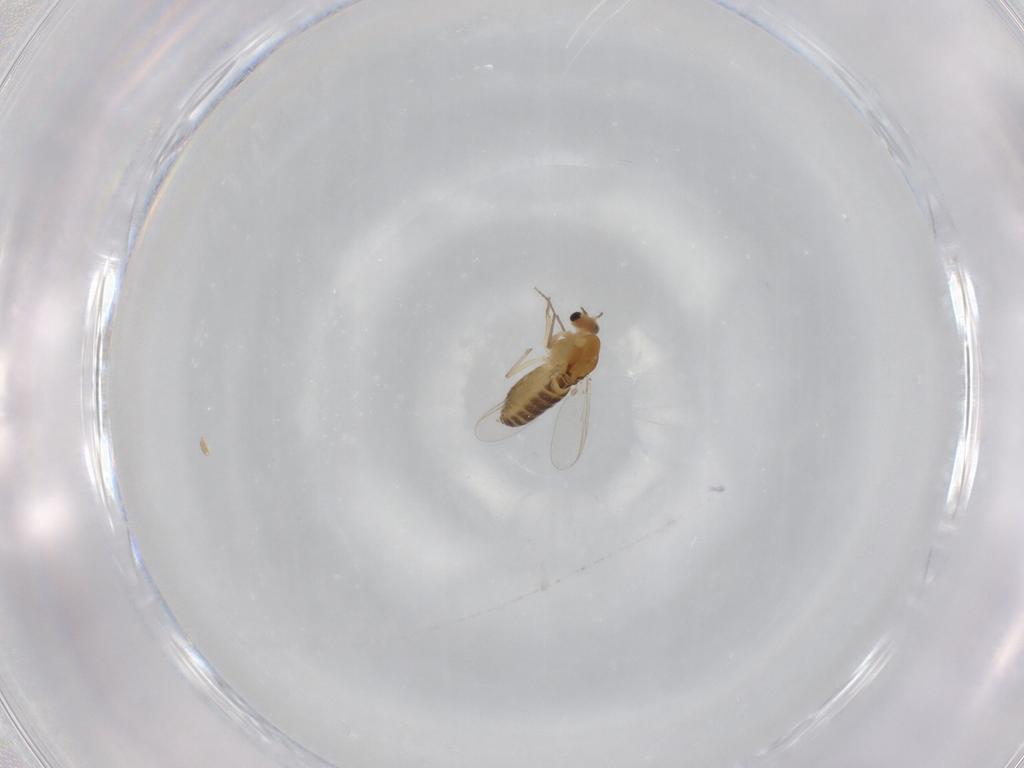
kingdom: Animalia
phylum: Arthropoda
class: Insecta
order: Diptera
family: Chironomidae
